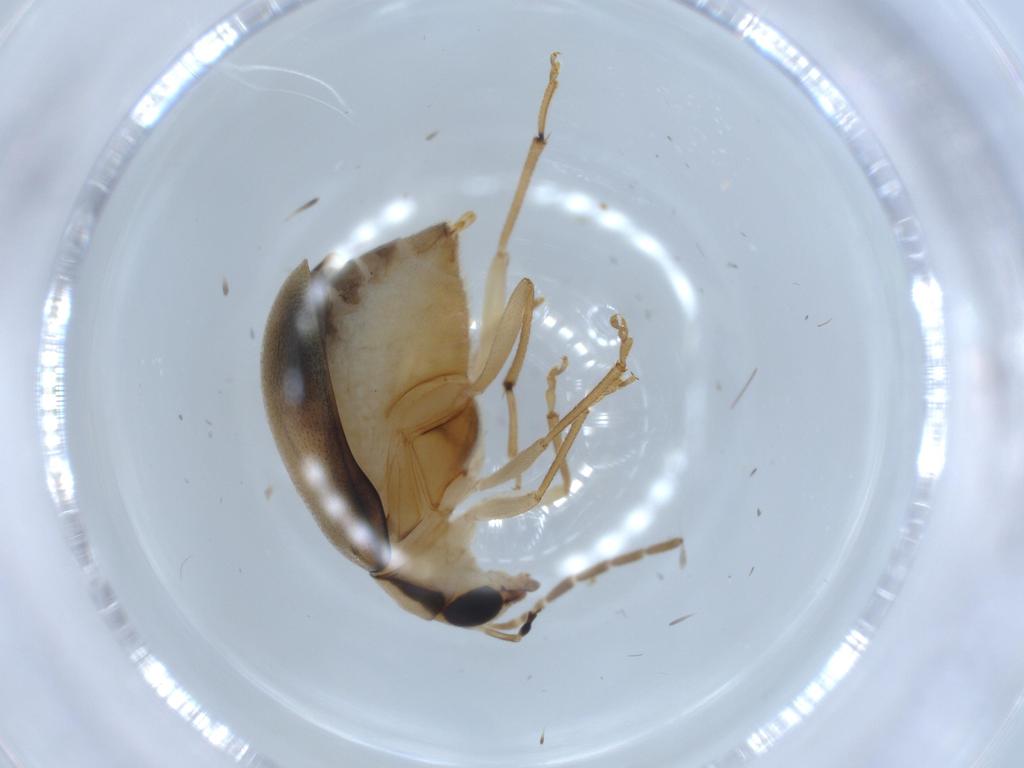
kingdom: Animalia
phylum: Arthropoda
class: Insecta
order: Coleoptera
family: Chrysomelidae
